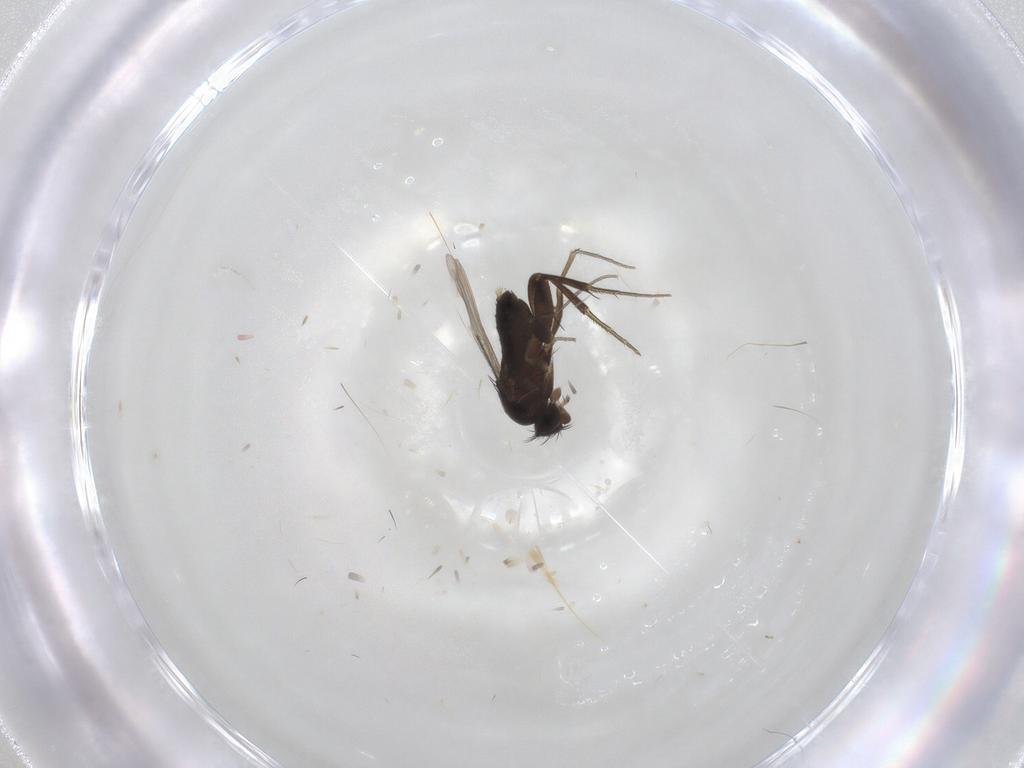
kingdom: Animalia
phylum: Arthropoda
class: Insecta
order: Diptera
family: Phoridae
